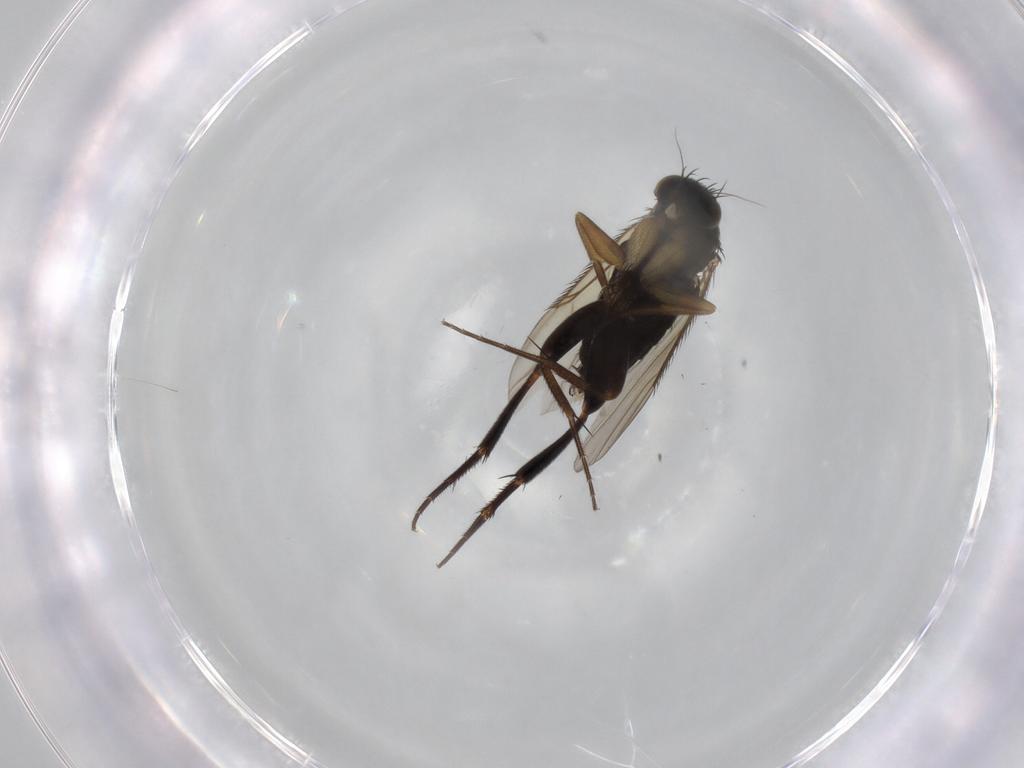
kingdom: Animalia
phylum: Arthropoda
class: Insecta
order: Diptera
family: Phoridae
